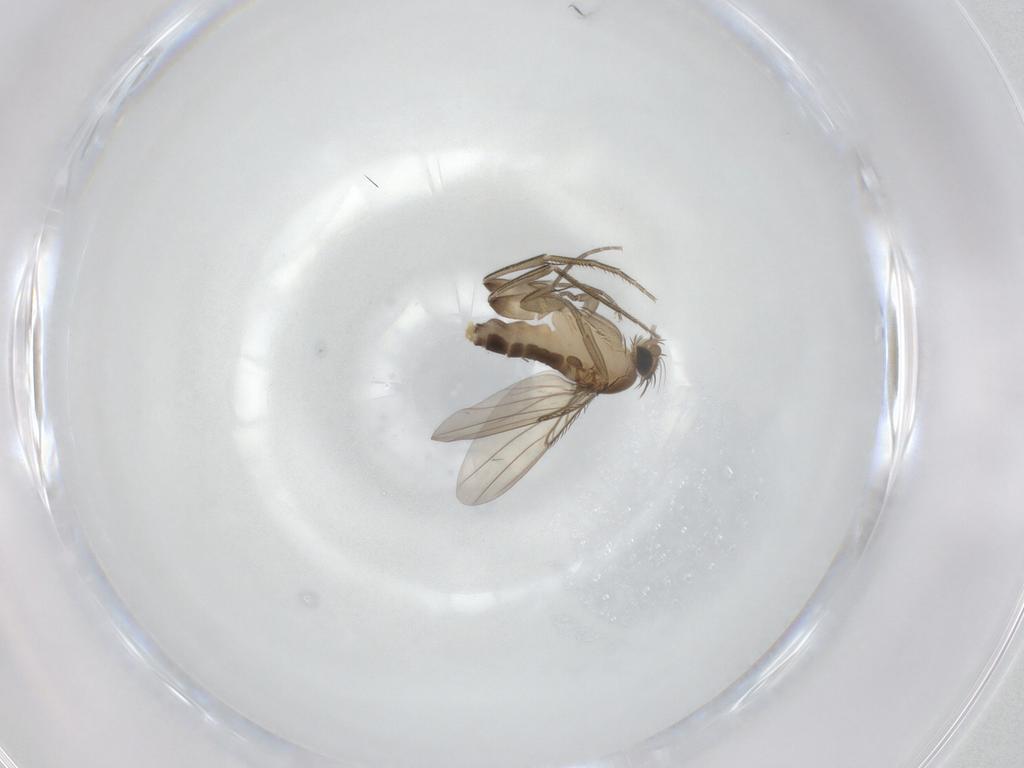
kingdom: Animalia
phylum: Arthropoda
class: Insecta
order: Diptera
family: Phoridae
